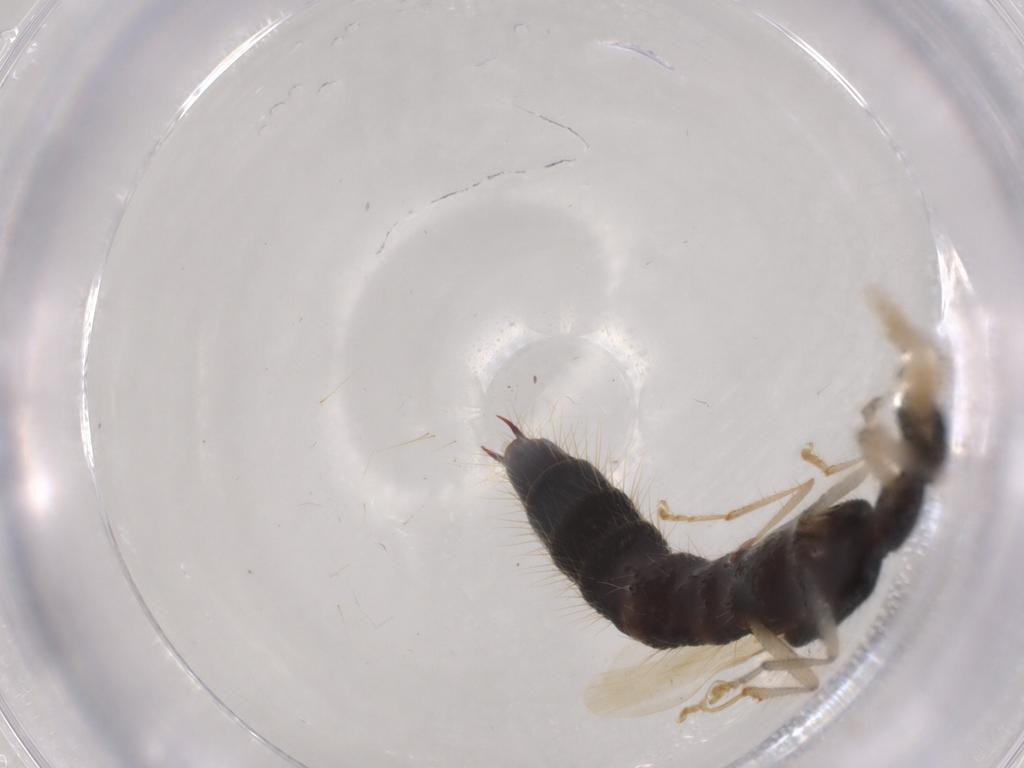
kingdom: Animalia
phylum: Arthropoda
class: Insecta
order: Coleoptera
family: Staphylinidae
